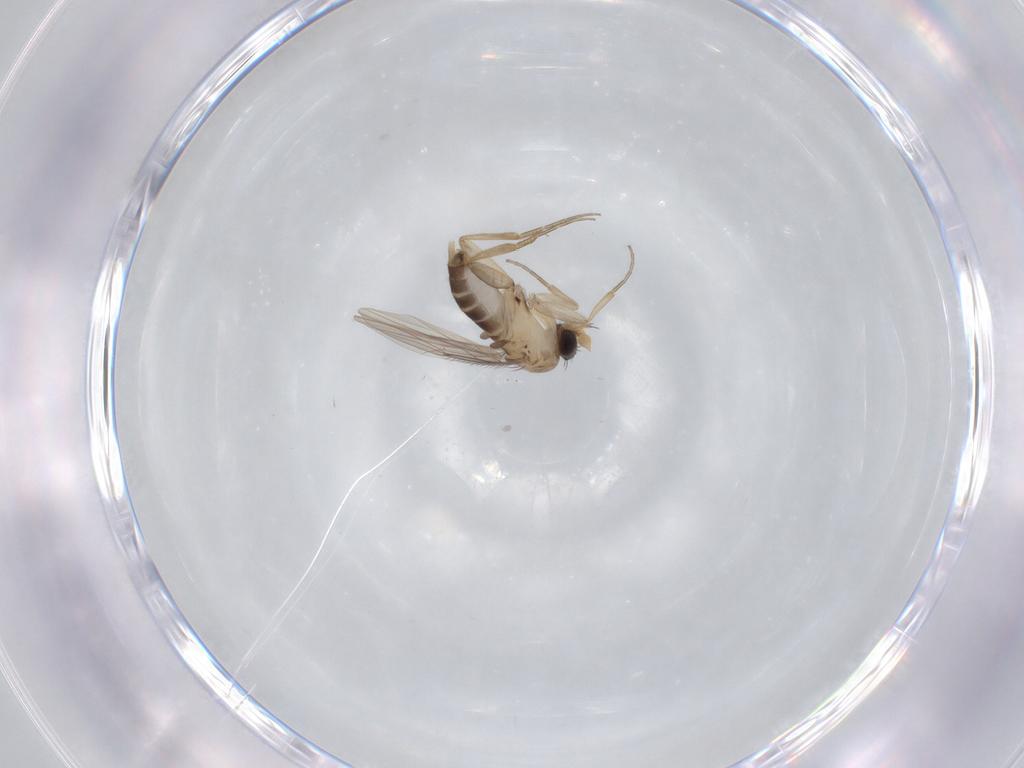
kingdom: Animalia
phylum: Arthropoda
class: Insecta
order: Diptera
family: Phoridae
